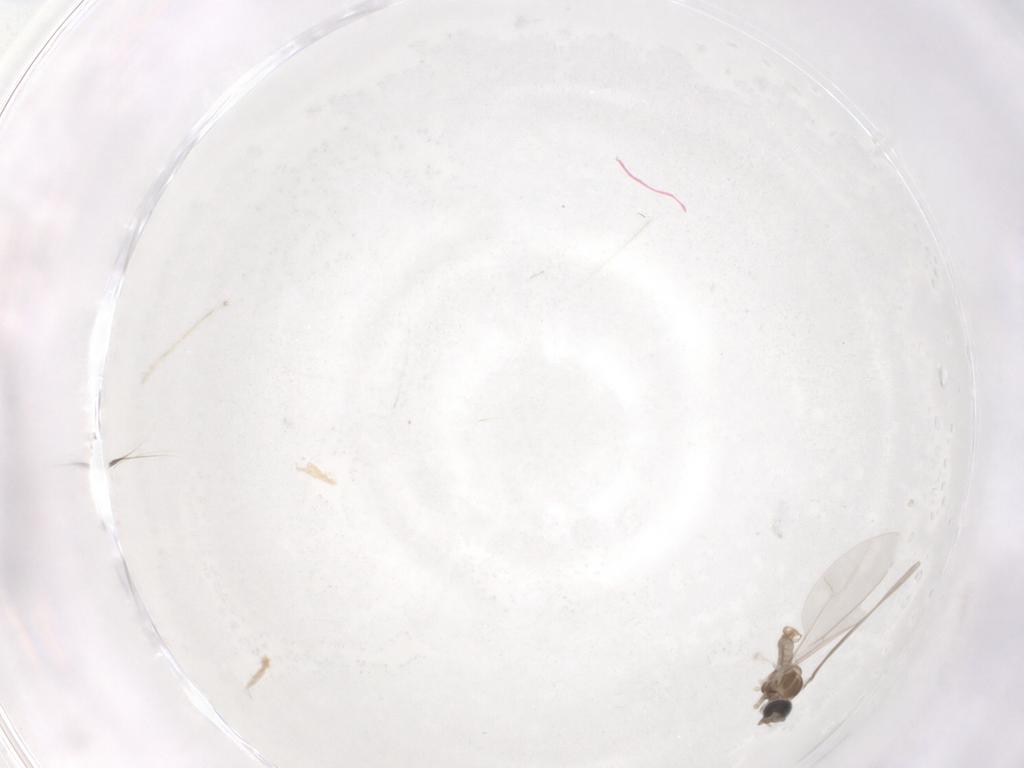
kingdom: Animalia
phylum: Arthropoda
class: Insecta
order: Diptera
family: Cecidomyiidae
